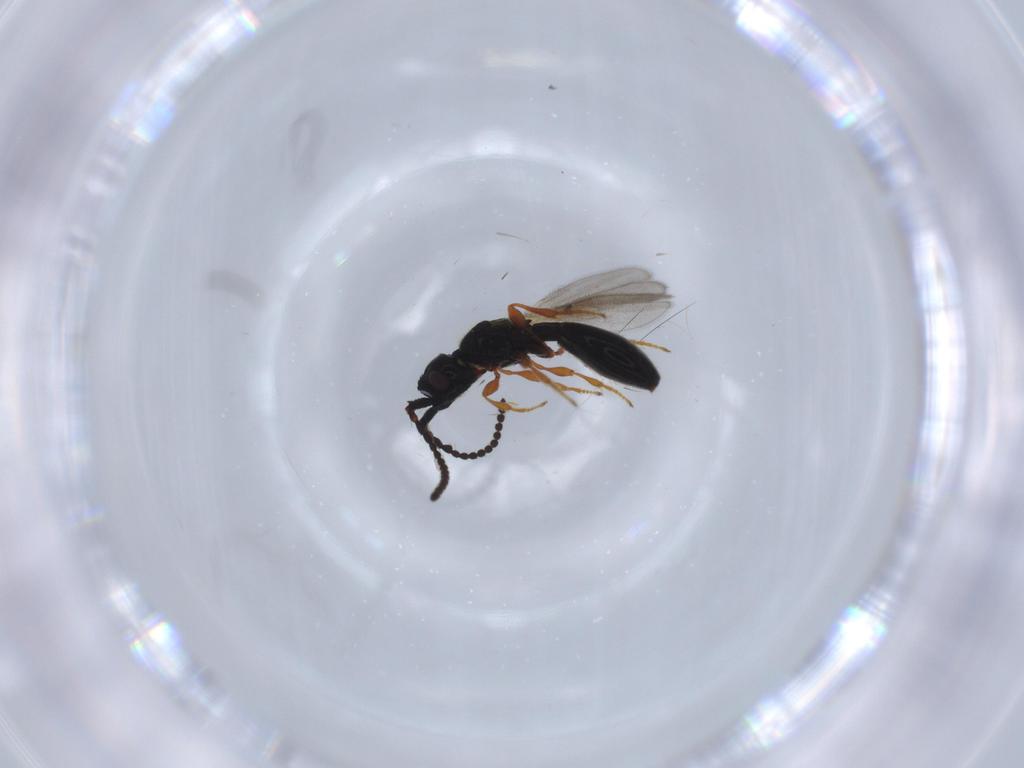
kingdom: Animalia
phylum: Arthropoda
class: Insecta
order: Hymenoptera
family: Diapriidae
